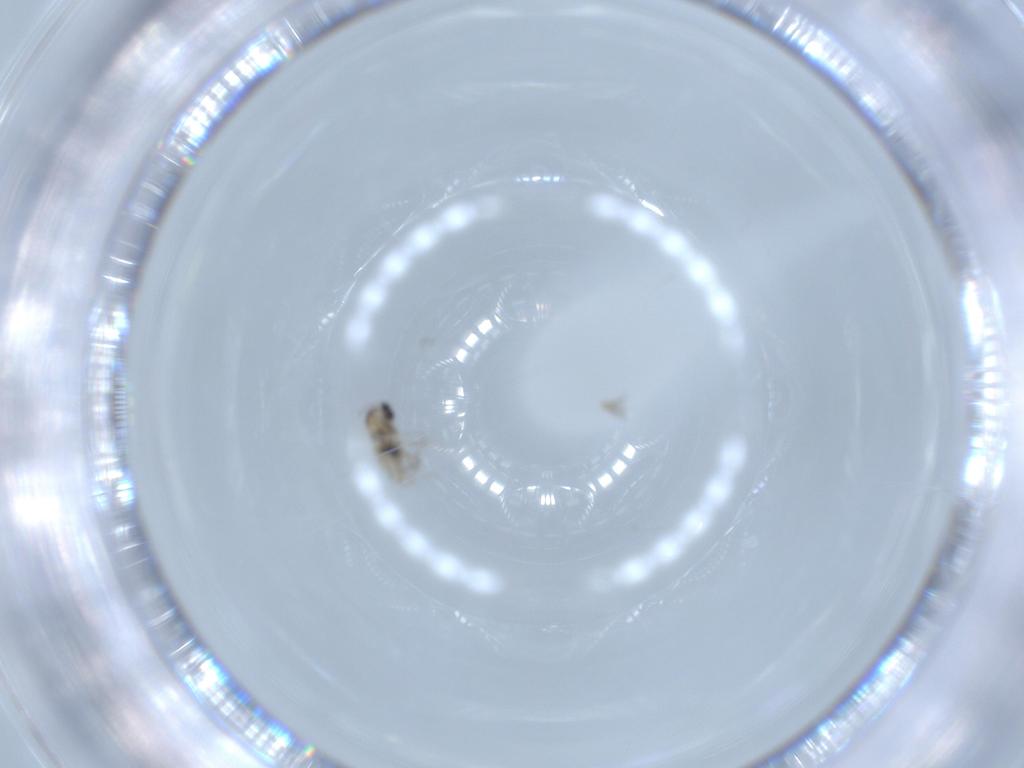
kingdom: Animalia
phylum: Arthropoda
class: Insecta
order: Diptera
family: Cecidomyiidae
